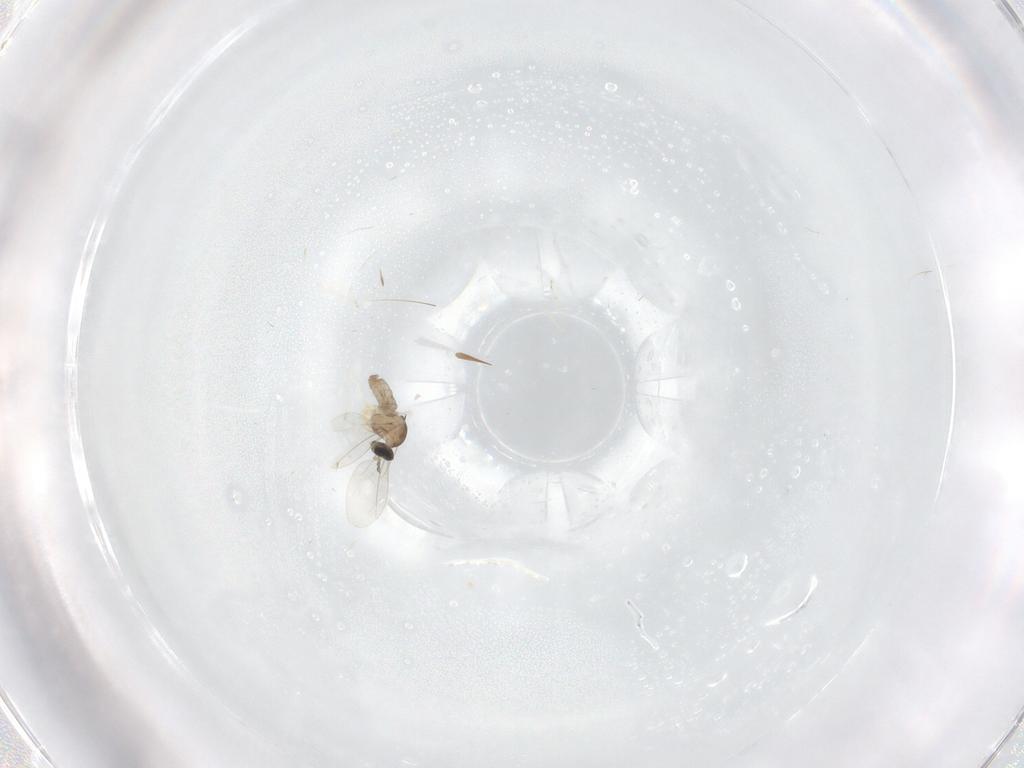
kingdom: Animalia
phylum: Arthropoda
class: Insecta
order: Diptera
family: Cecidomyiidae
